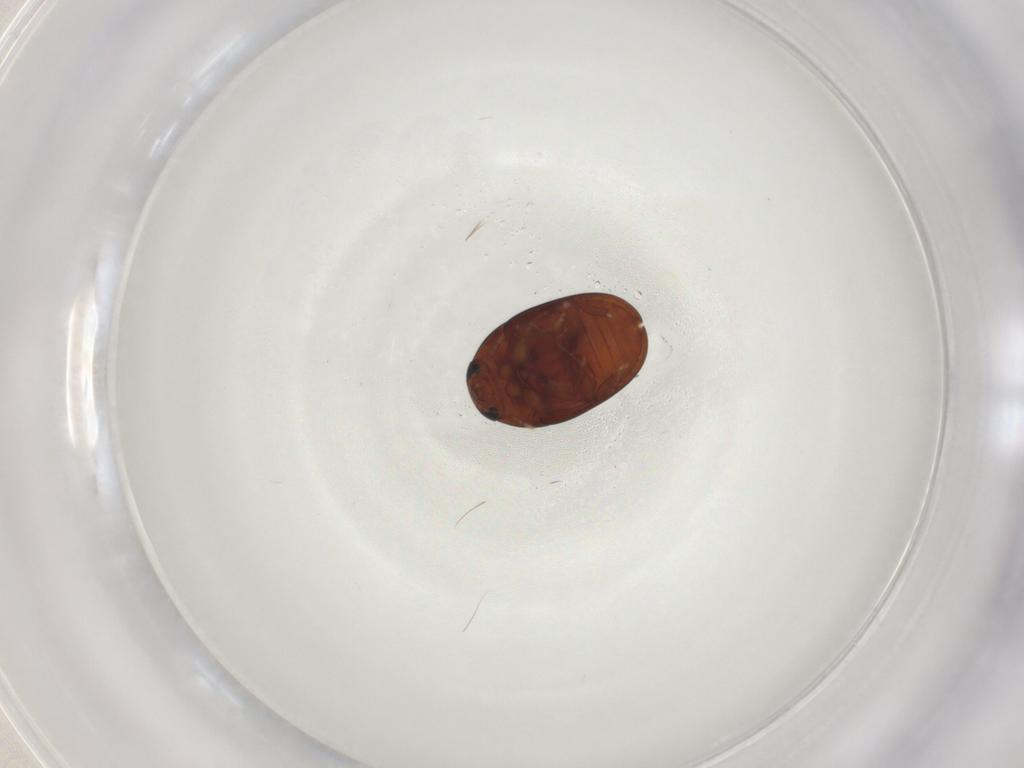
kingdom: Animalia
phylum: Arthropoda
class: Insecta
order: Coleoptera
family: Phalacridae
